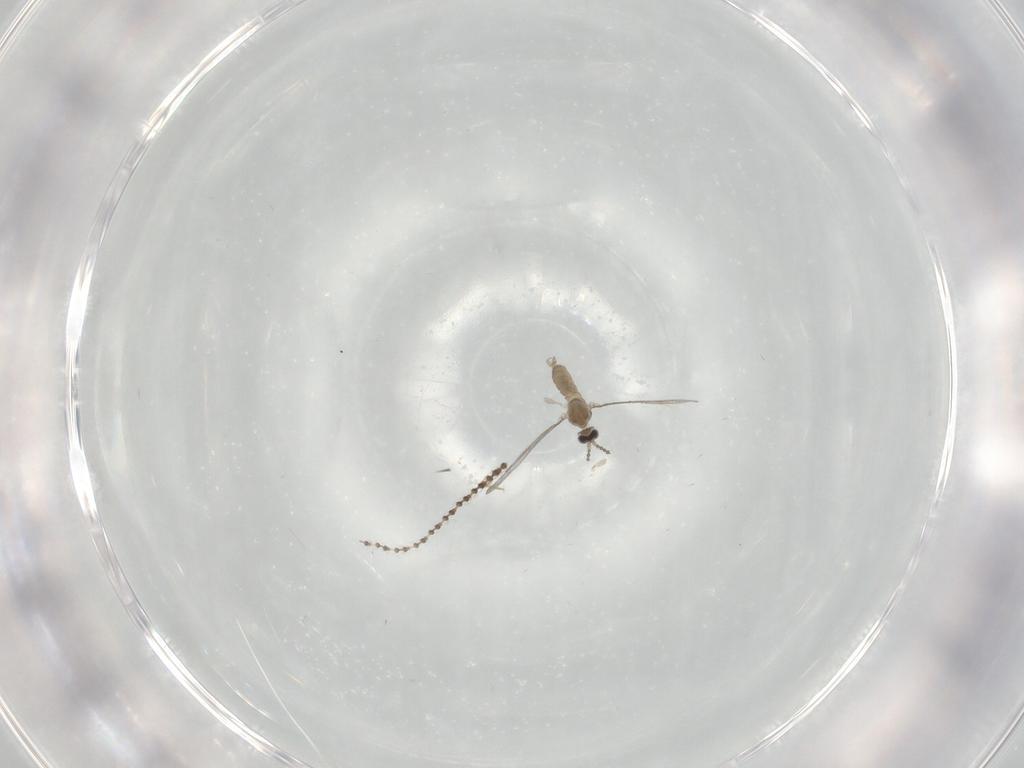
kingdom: Animalia
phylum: Arthropoda
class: Insecta
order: Diptera
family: Cecidomyiidae
